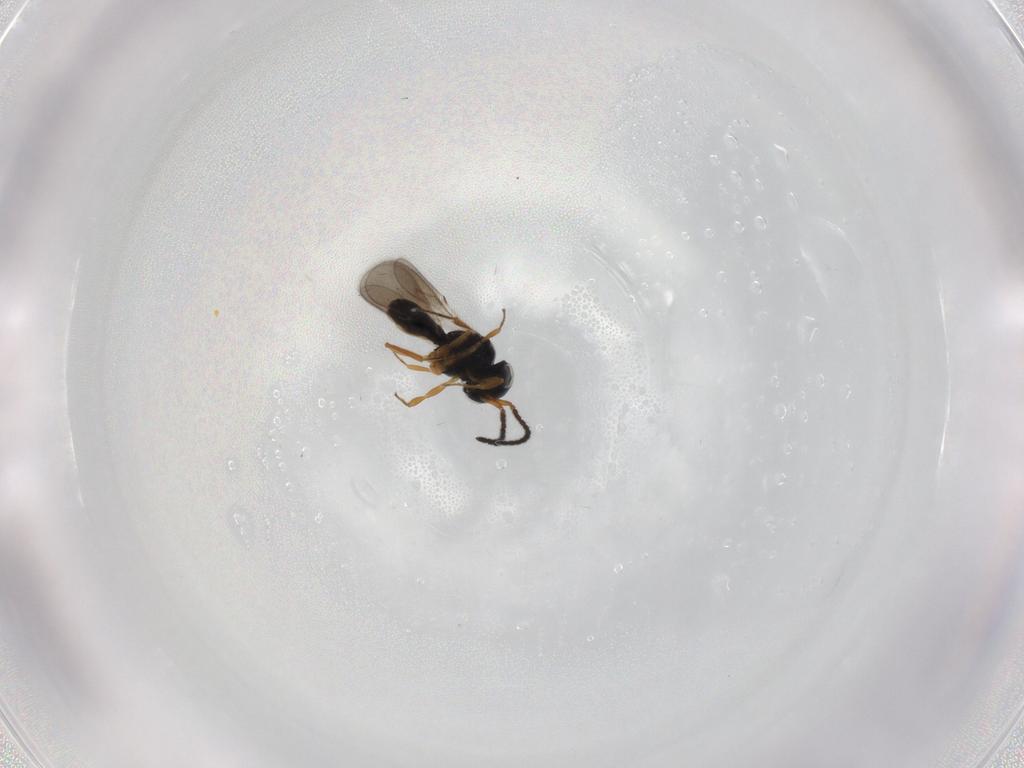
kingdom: Animalia
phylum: Arthropoda
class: Insecta
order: Hymenoptera
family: Scelionidae
